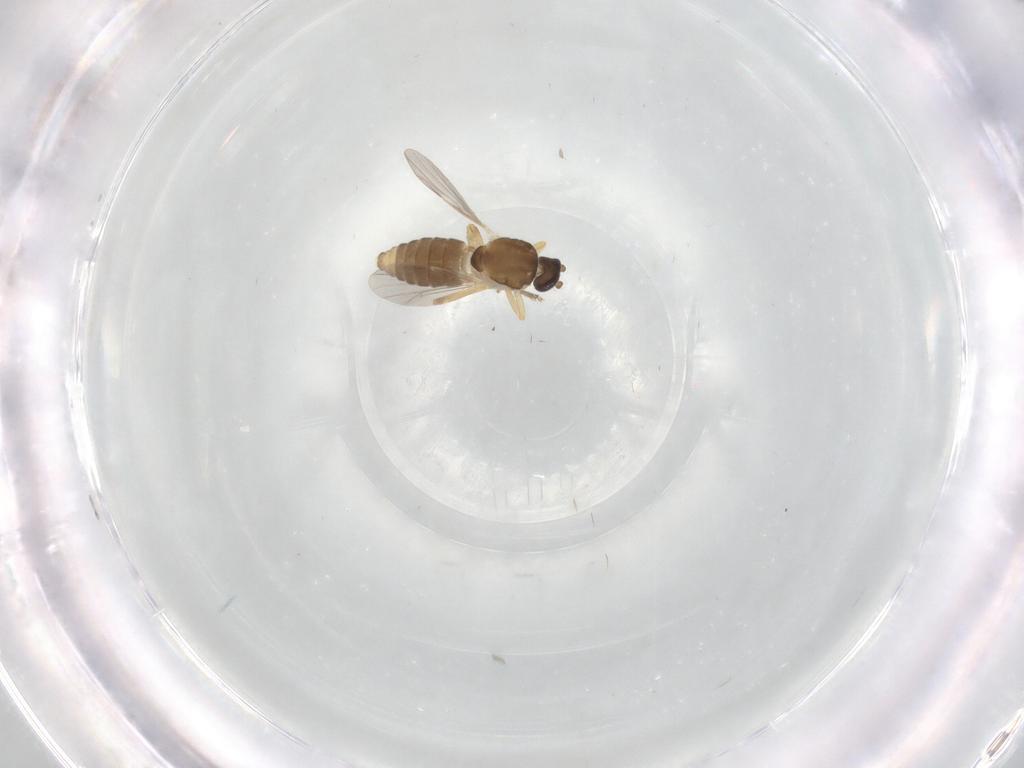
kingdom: Animalia
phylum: Arthropoda
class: Insecta
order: Diptera
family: Ceratopogonidae
